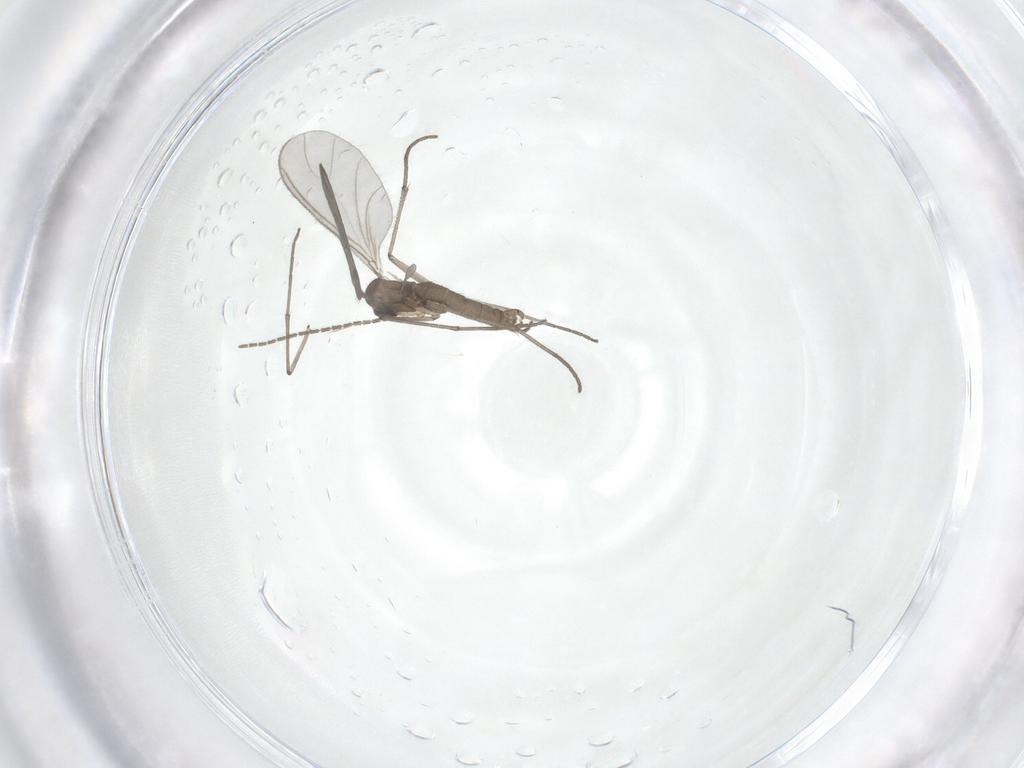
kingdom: Animalia
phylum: Arthropoda
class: Insecta
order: Diptera
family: Sciaridae
